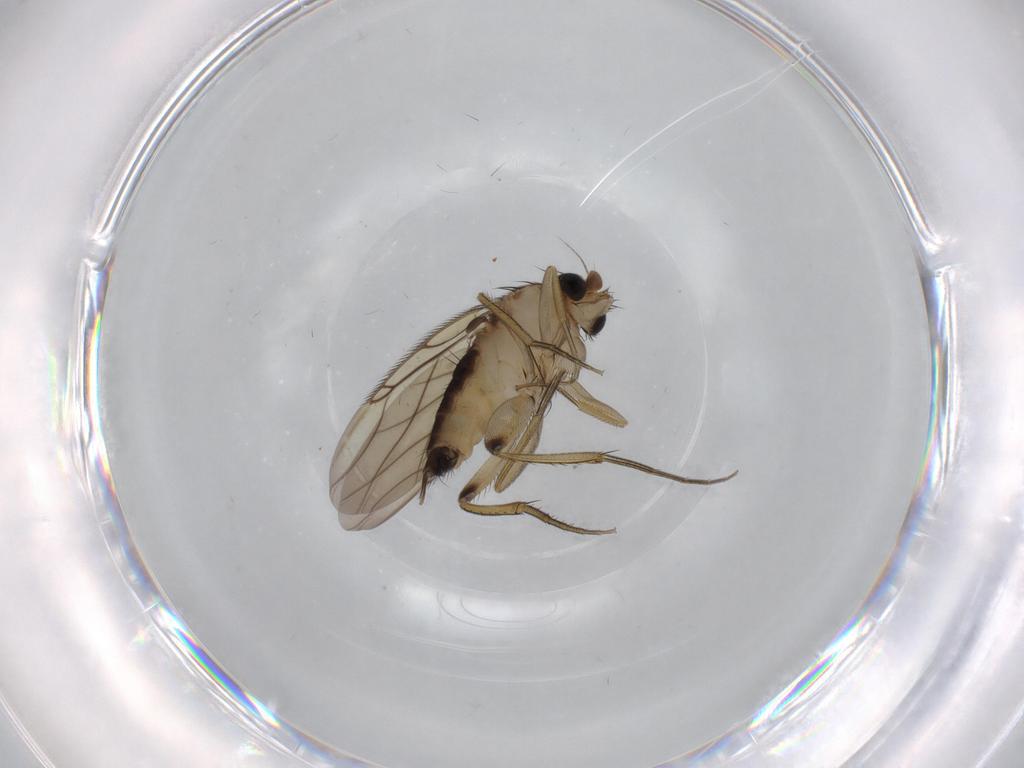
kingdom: Animalia
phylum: Arthropoda
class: Insecta
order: Diptera
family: Phoridae
